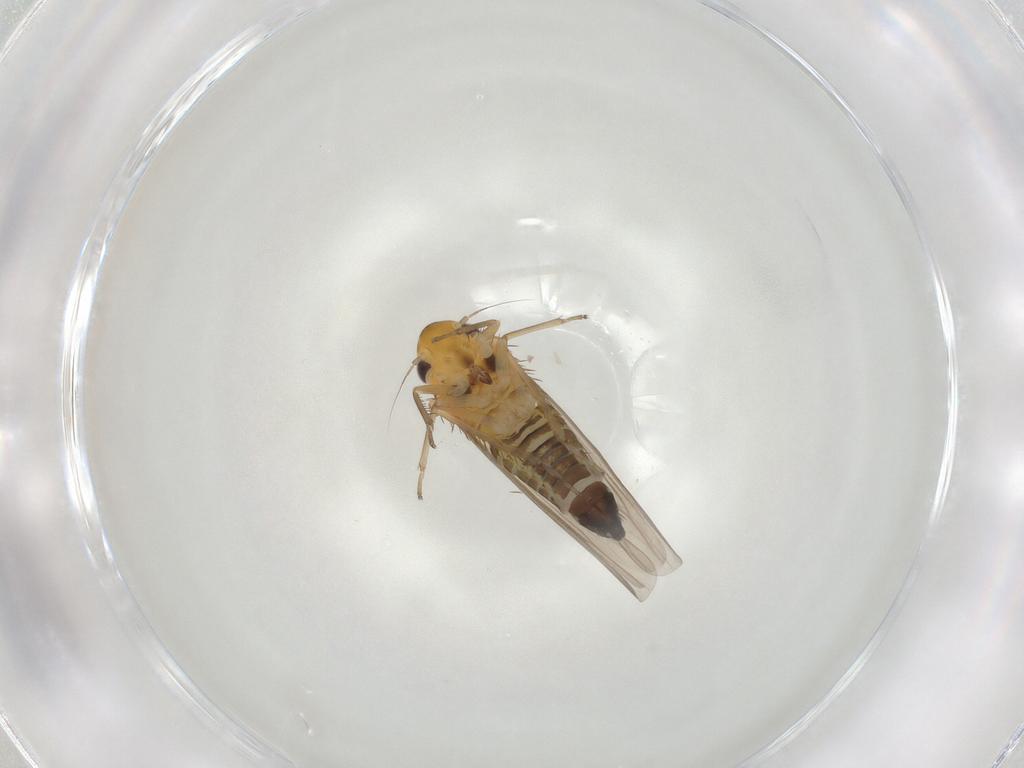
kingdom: Animalia
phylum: Arthropoda
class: Insecta
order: Hemiptera
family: Cicadellidae
